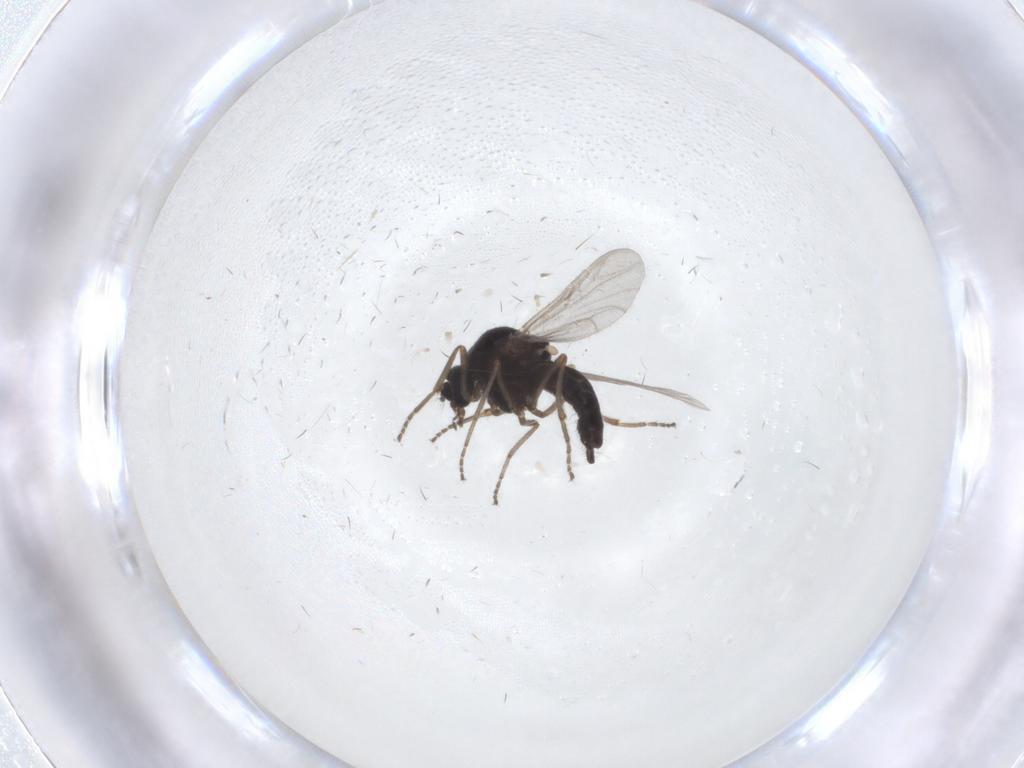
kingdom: Animalia
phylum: Arthropoda
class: Insecta
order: Diptera
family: Ceratopogonidae
